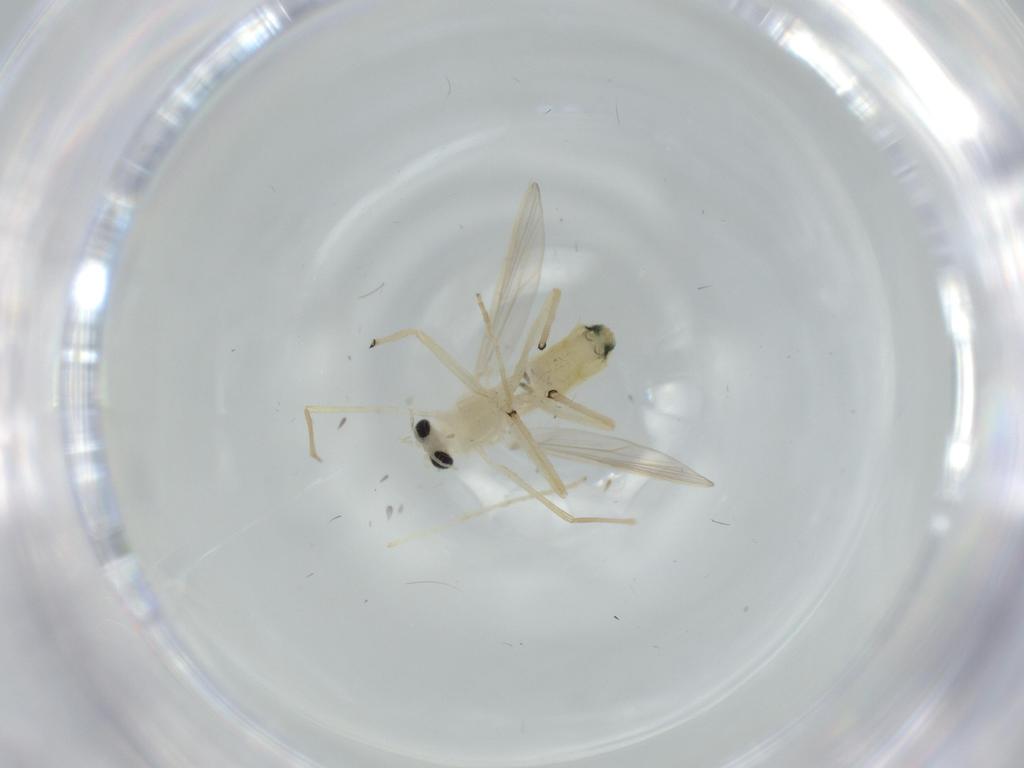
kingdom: Animalia
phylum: Arthropoda
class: Insecta
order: Diptera
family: Chironomidae
